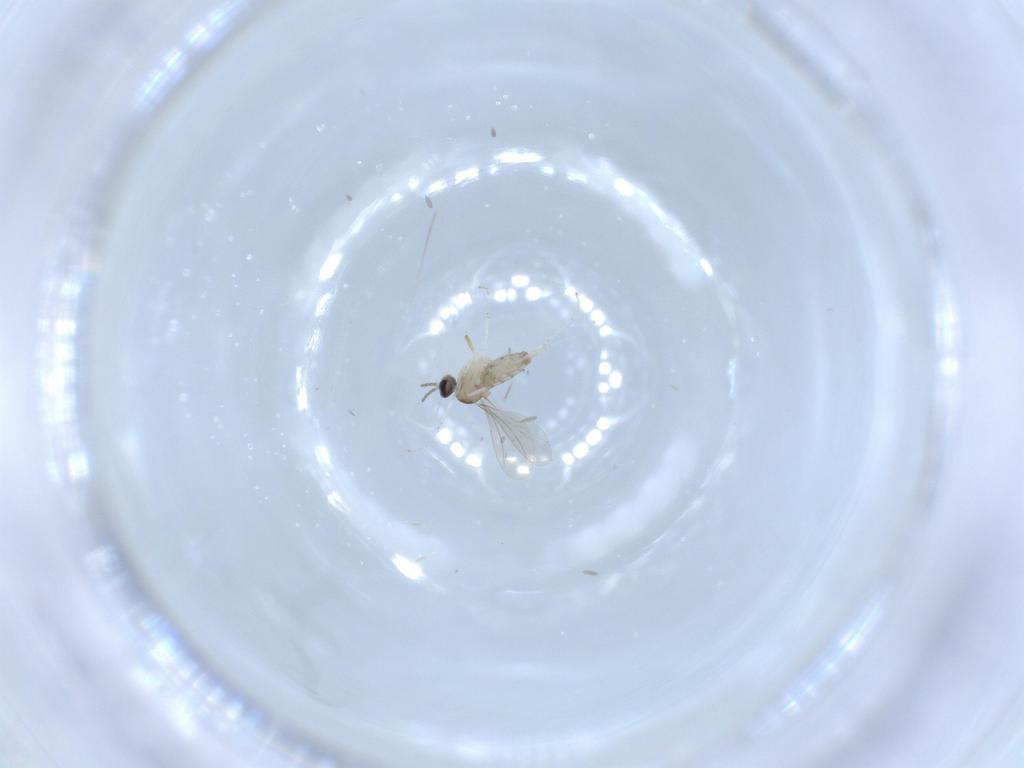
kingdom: Animalia
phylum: Arthropoda
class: Insecta
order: Diptera
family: Cecidomyiidae
